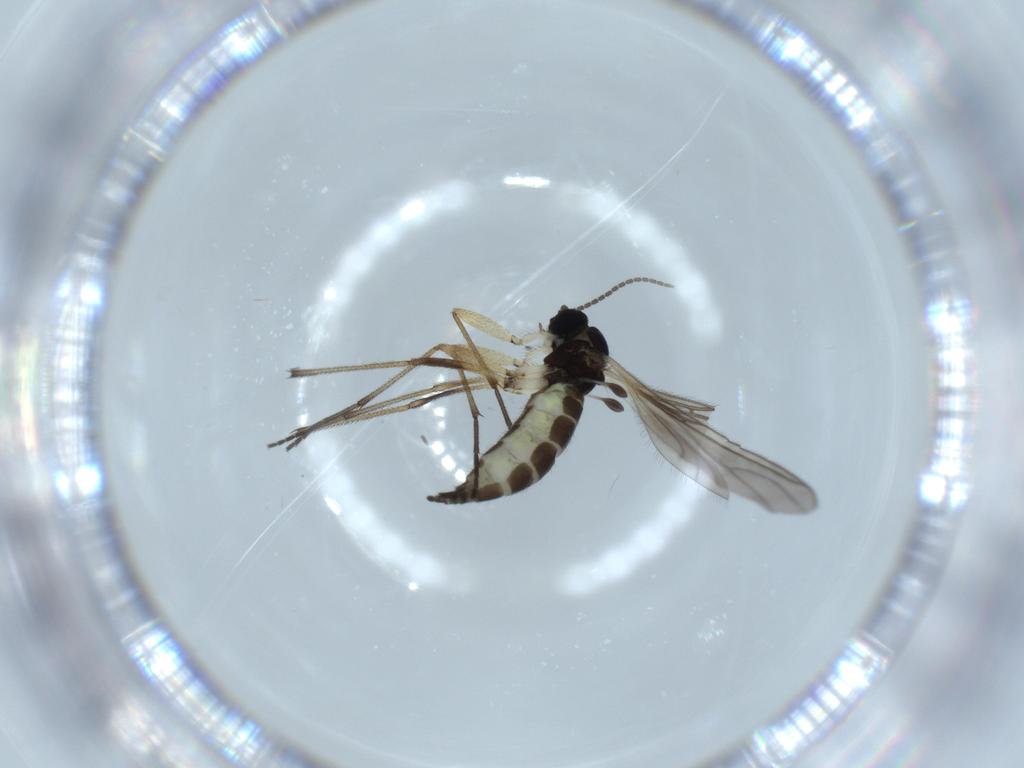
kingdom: Animalia
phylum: Arthropoda
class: Insecta
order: Diptera
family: Sciaridae
